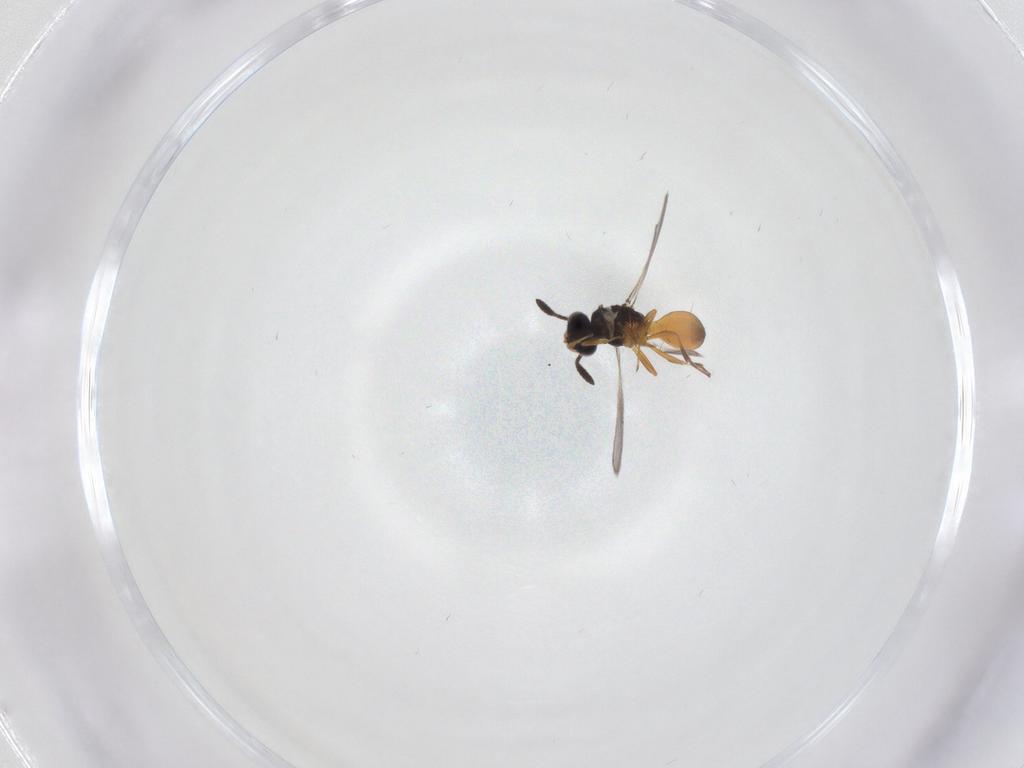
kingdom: Animalia
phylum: Arthropoda
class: Insecta
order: Hymenoptera
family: Scelionidae
